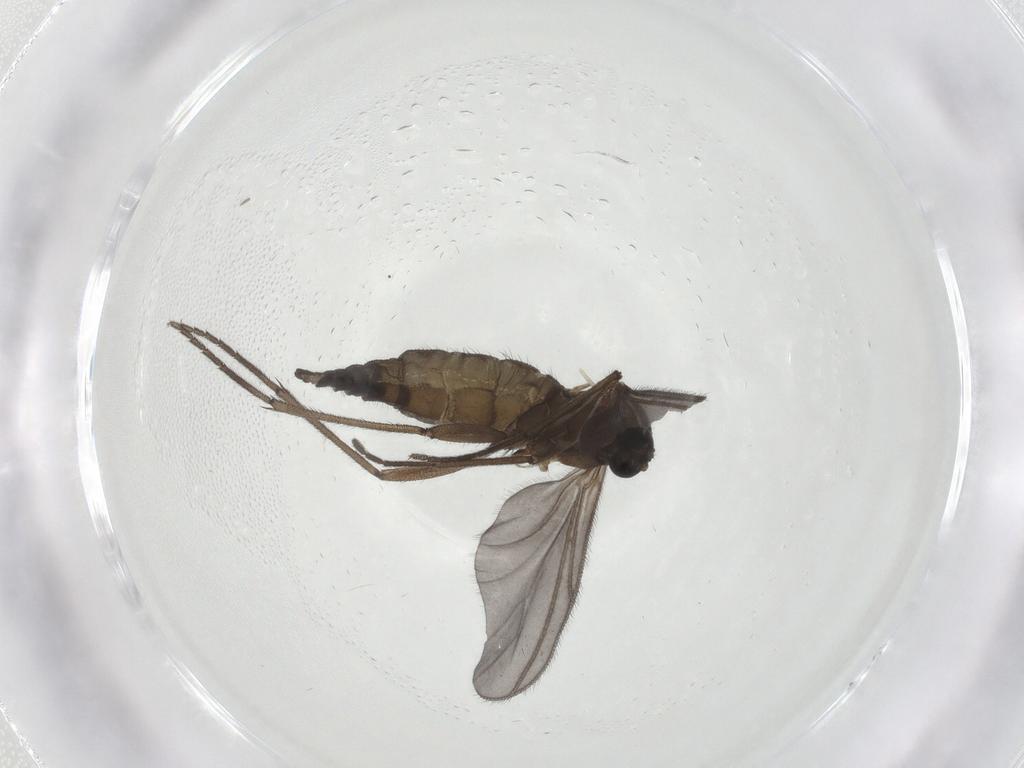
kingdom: Animalia
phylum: Arthropoda
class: Insecta
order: Diptera
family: Cecidomyiidae
